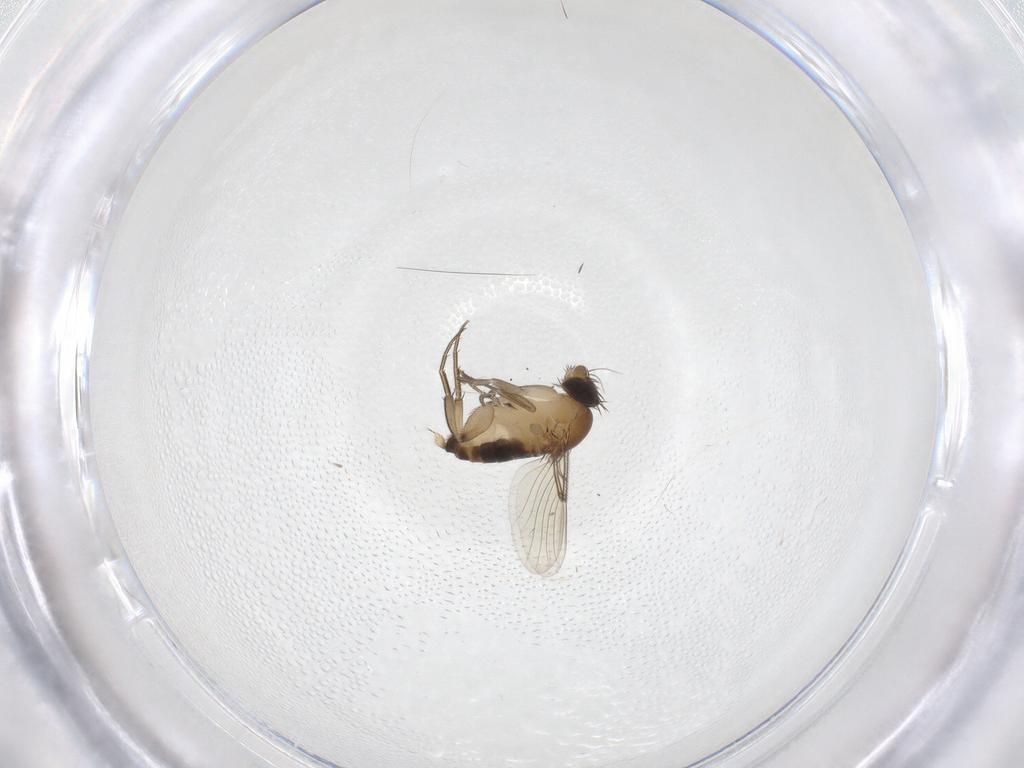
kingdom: Animalia
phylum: Arthropoda
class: Insecta
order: Diptera
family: Phoridae
